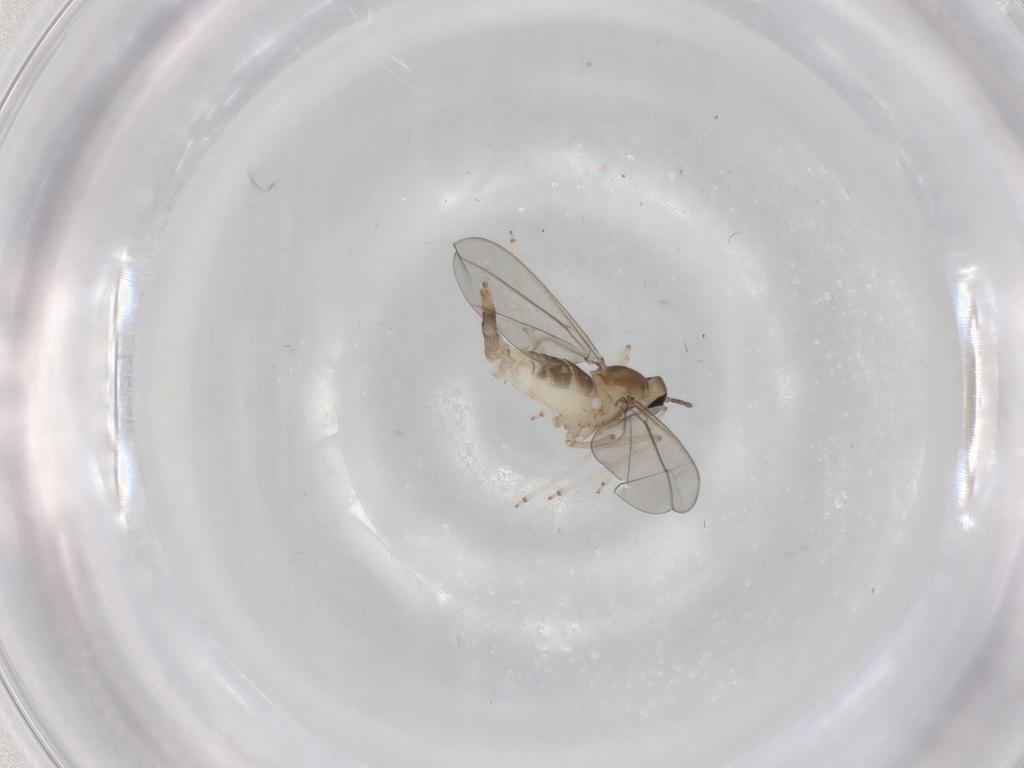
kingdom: Animalia
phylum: Arthropoda
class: Insecta
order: Diptera
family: Cecidomyiidae
